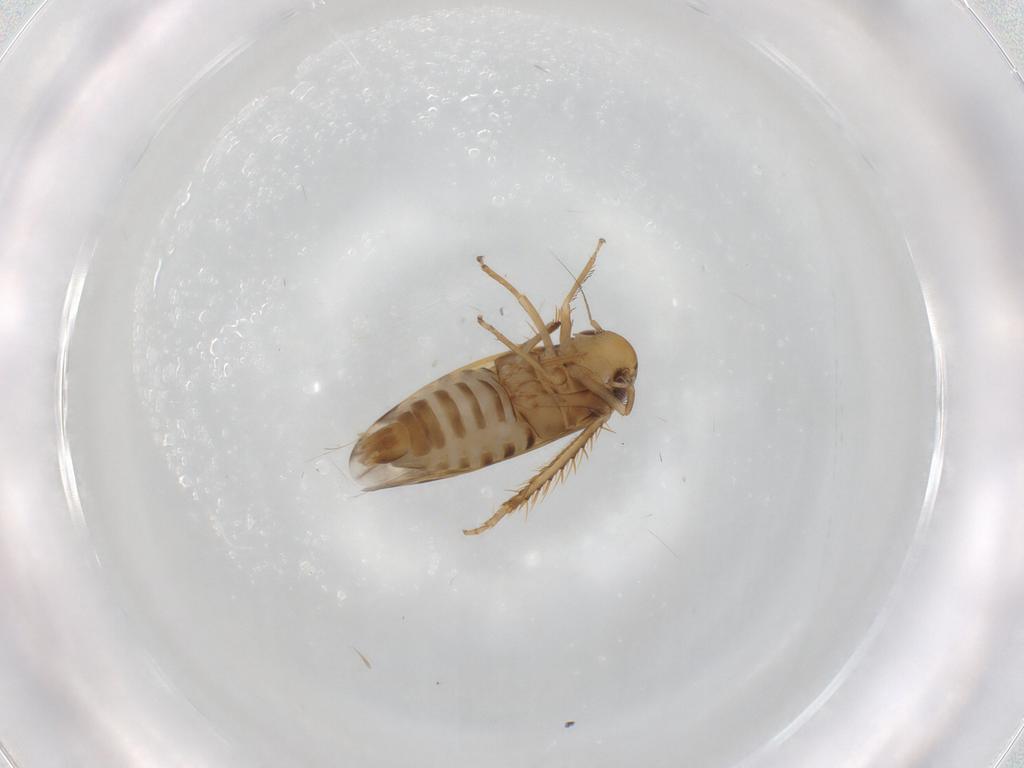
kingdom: Animalia
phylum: Arthropoda
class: Insecta
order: Hemiptera
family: Cicadellidae
